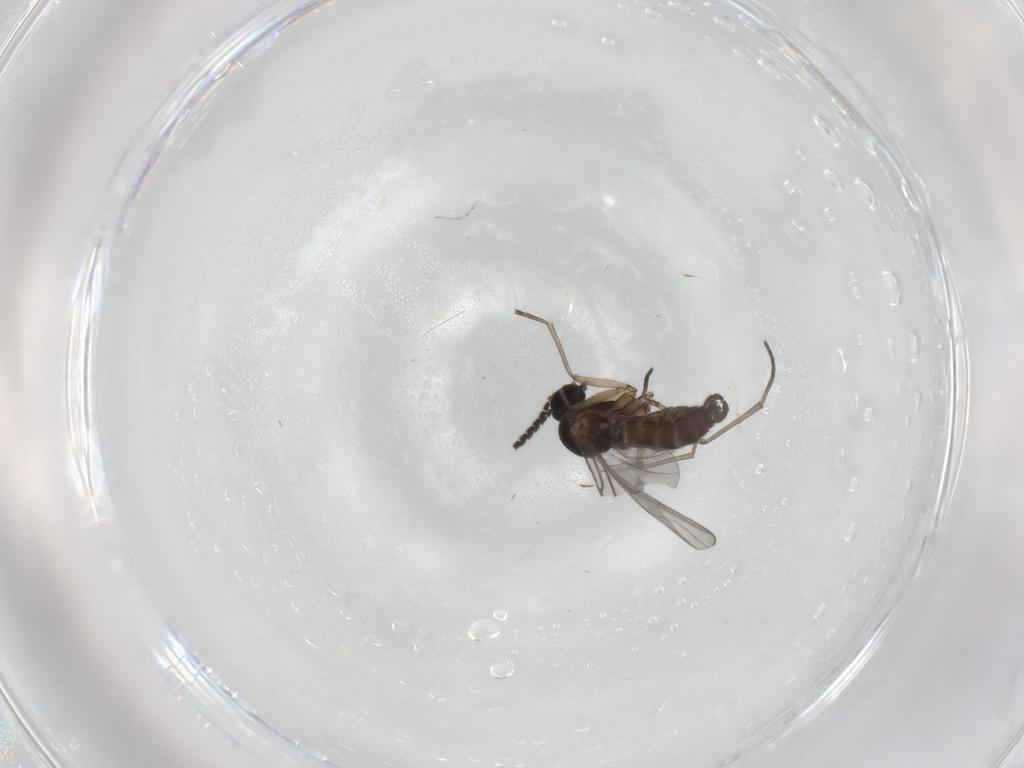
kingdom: Animalia
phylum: Arthropoda
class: Insecta
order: Diptera
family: Sciaridae
